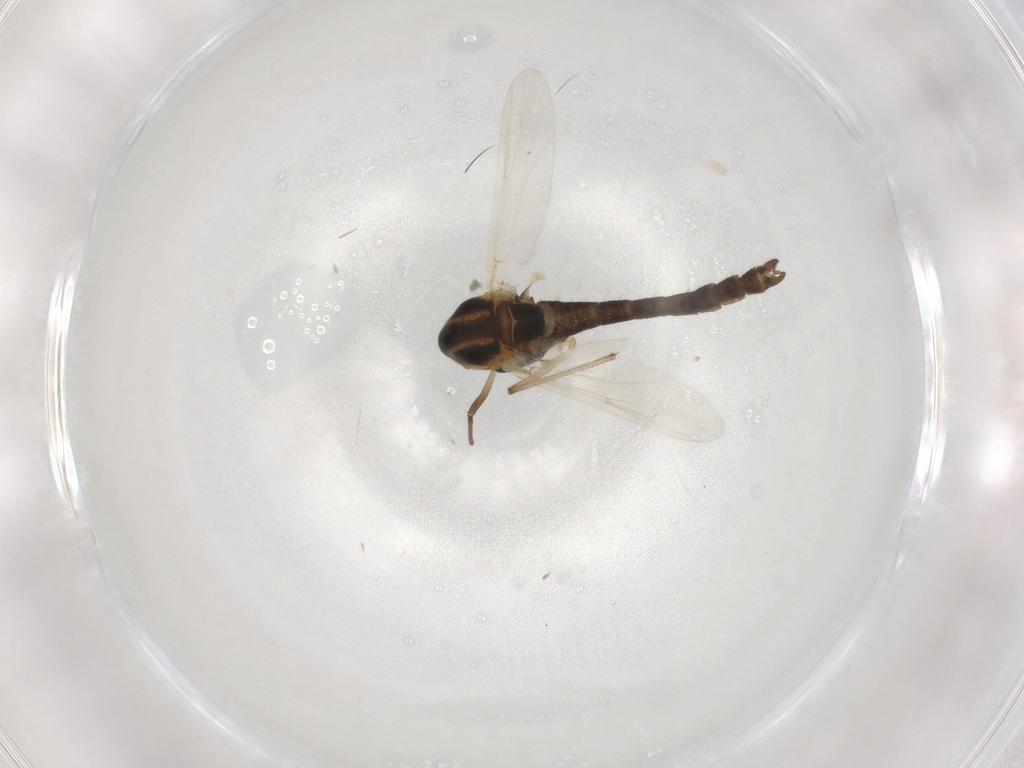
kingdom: Animalia
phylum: Arthropoda
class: Insecta
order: Diptera
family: Chironomidae
